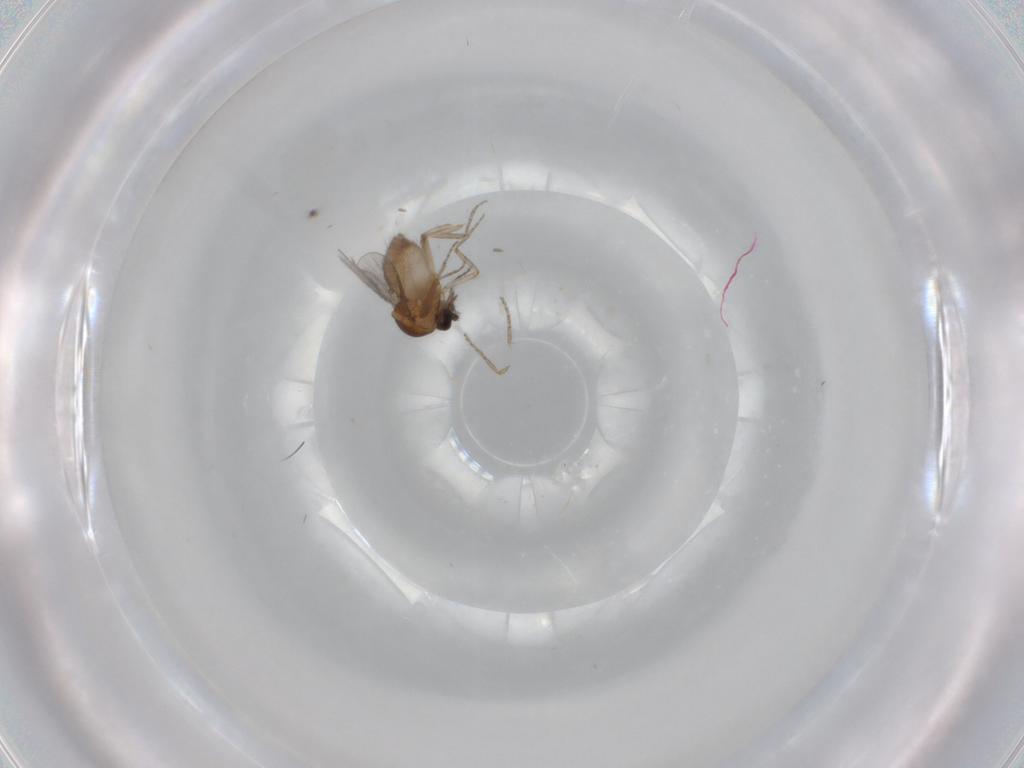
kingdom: Animalia
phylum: Arthropoda
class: Insecta
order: Diptera
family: Ceratopogonidae
